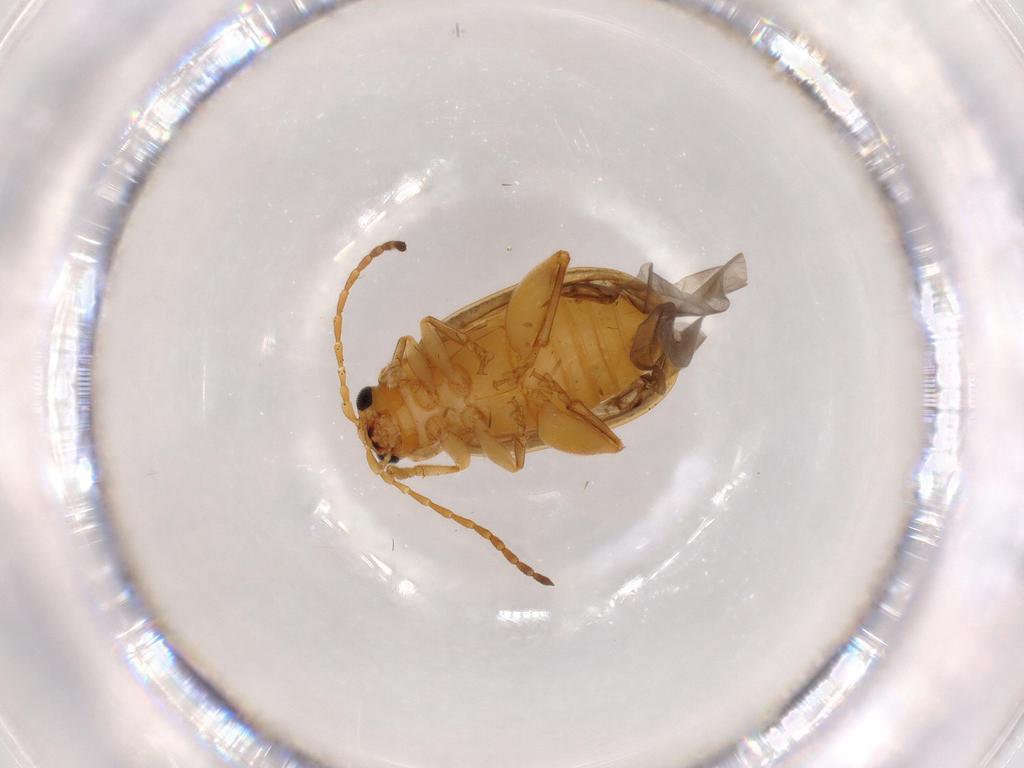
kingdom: Animalia
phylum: Arthropoda
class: Insecta
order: Coleoptera
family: Chrysomelidae
